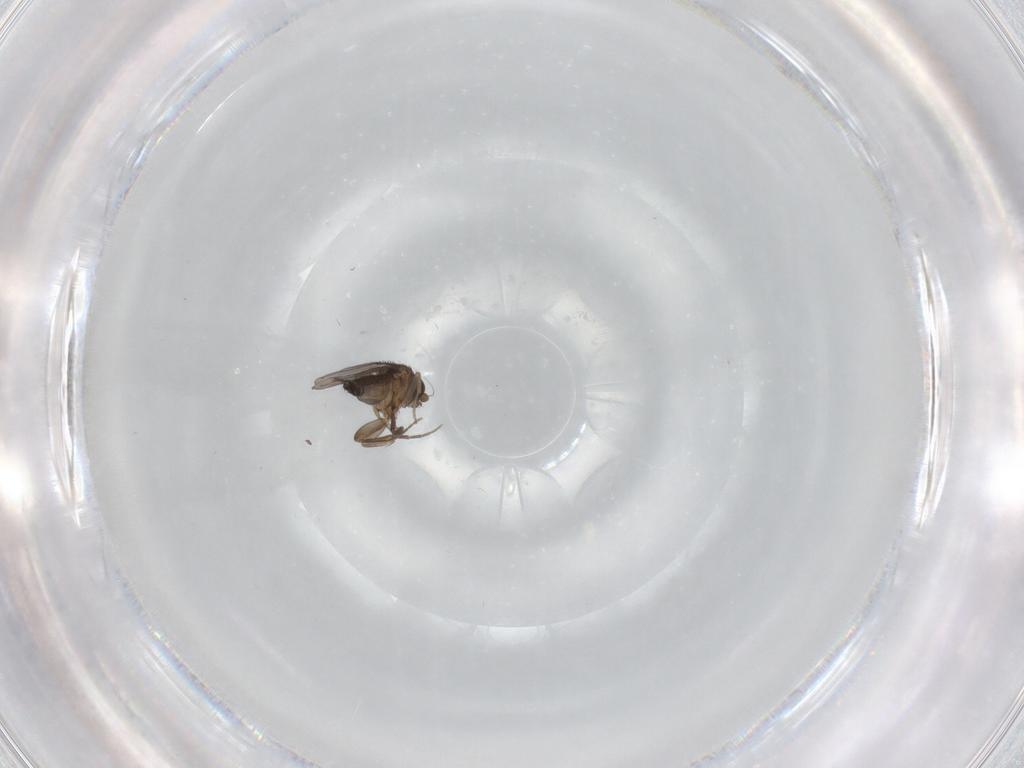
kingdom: Animalia
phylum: Arthropoda
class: Insecta
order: Diptera
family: Phoridae
